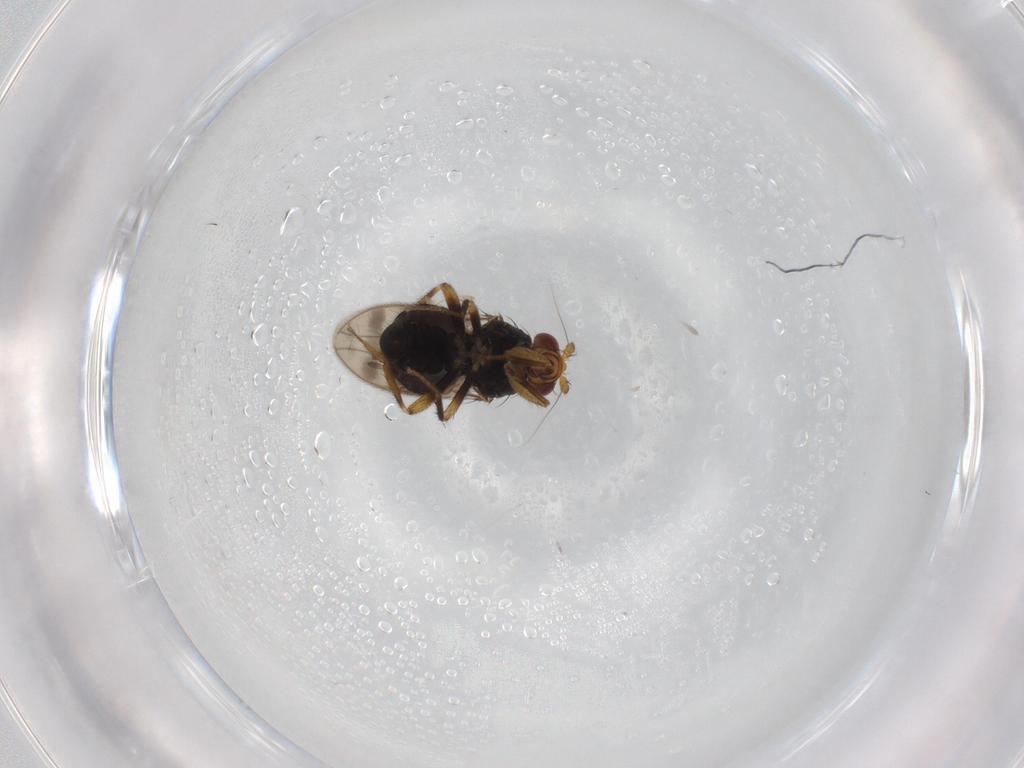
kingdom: Animalia
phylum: Arthropoda
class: Insecta
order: Diptera
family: Sphaeroceridae
